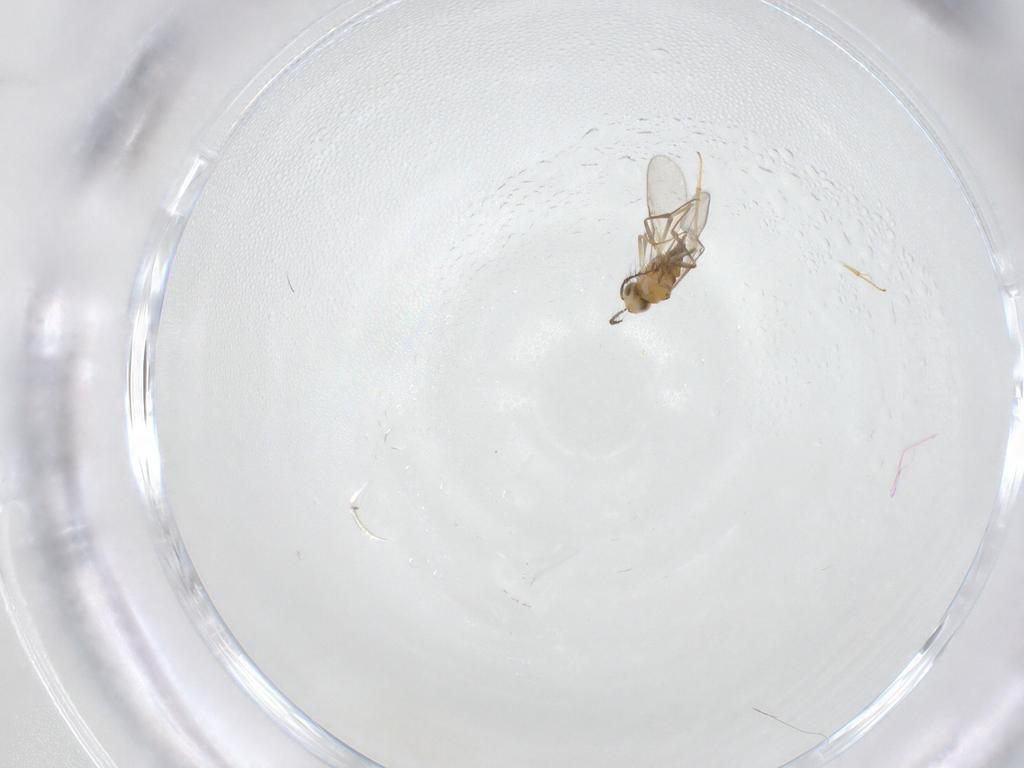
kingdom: Animalia
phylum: Arthropoda
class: Insecta
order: Hymenoptera
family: Encyrtidae
